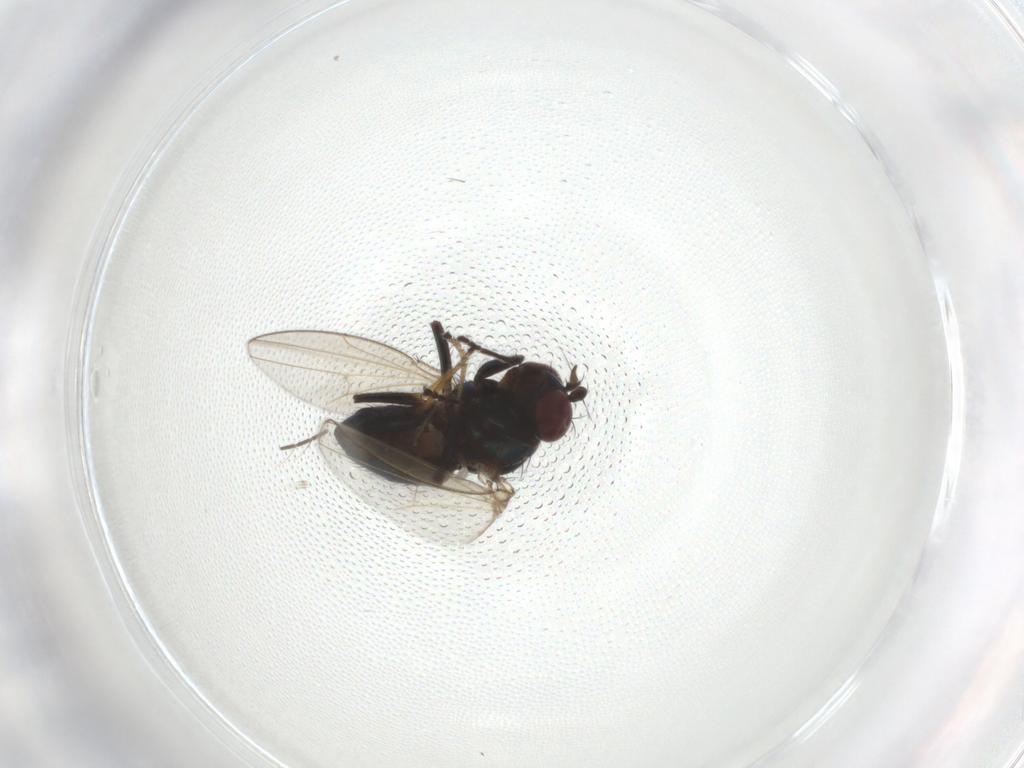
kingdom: Animalia
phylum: Arthropoda
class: Insecta
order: Diptera
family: Ephydridae
